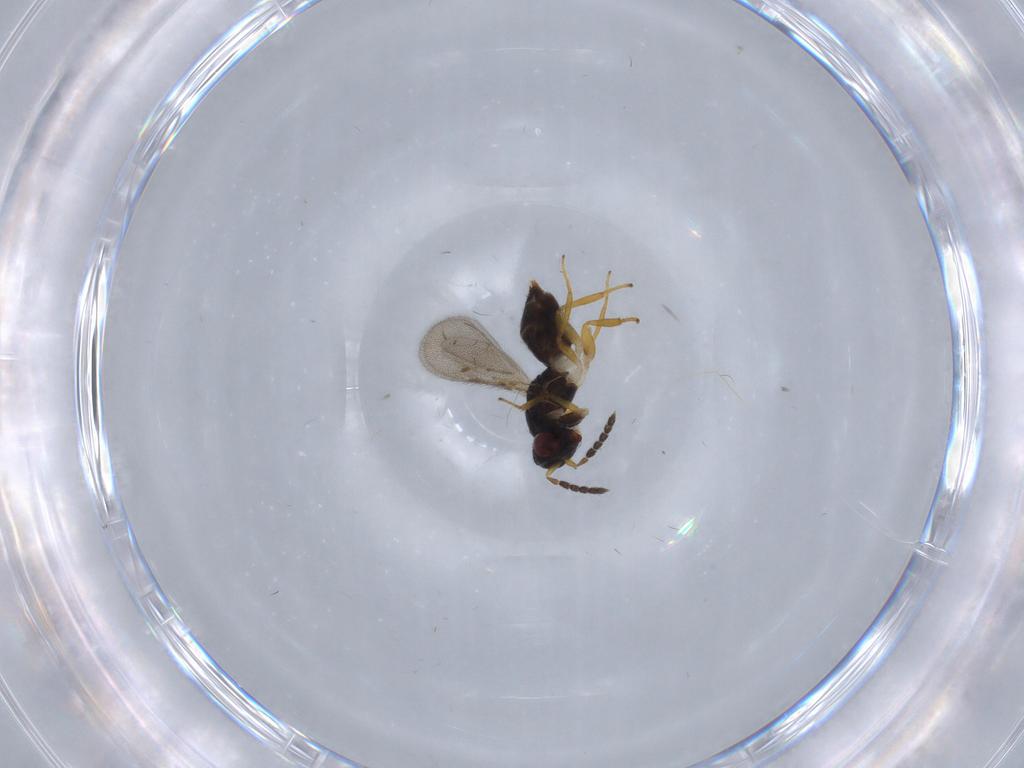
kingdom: Animalia
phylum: Arthropoda
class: Insecta
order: Hymenoptera
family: Eulophidae
